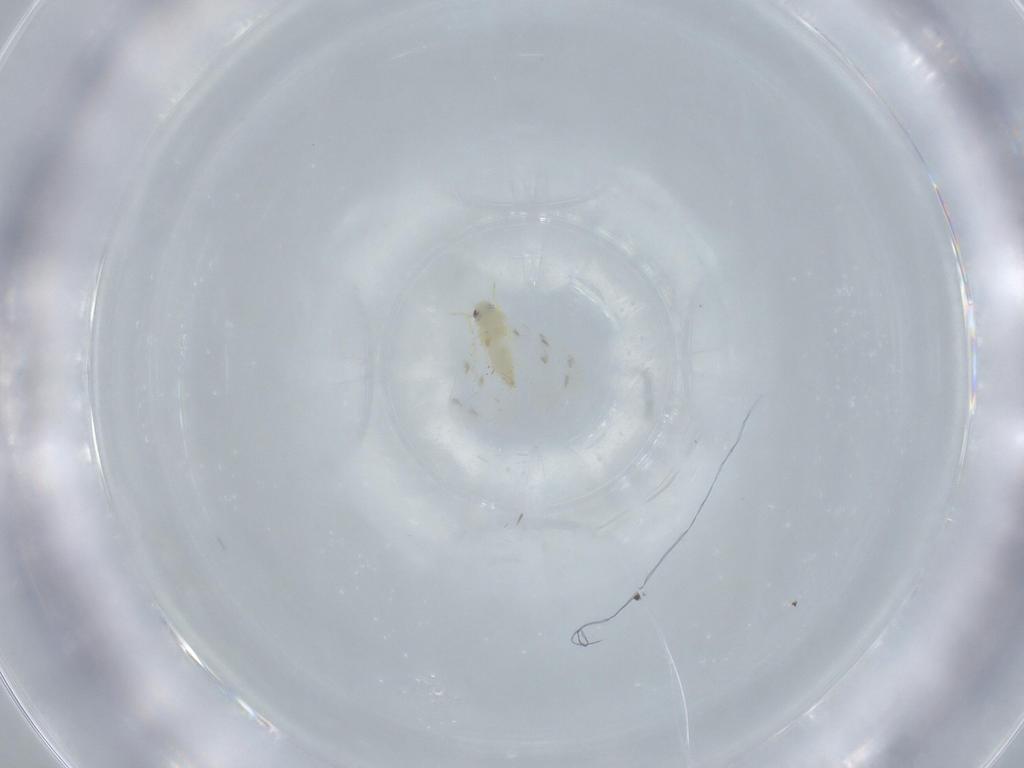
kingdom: Animalia
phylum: Arthropoda
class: Insecta
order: Hemiptera
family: Aleyrodidae
